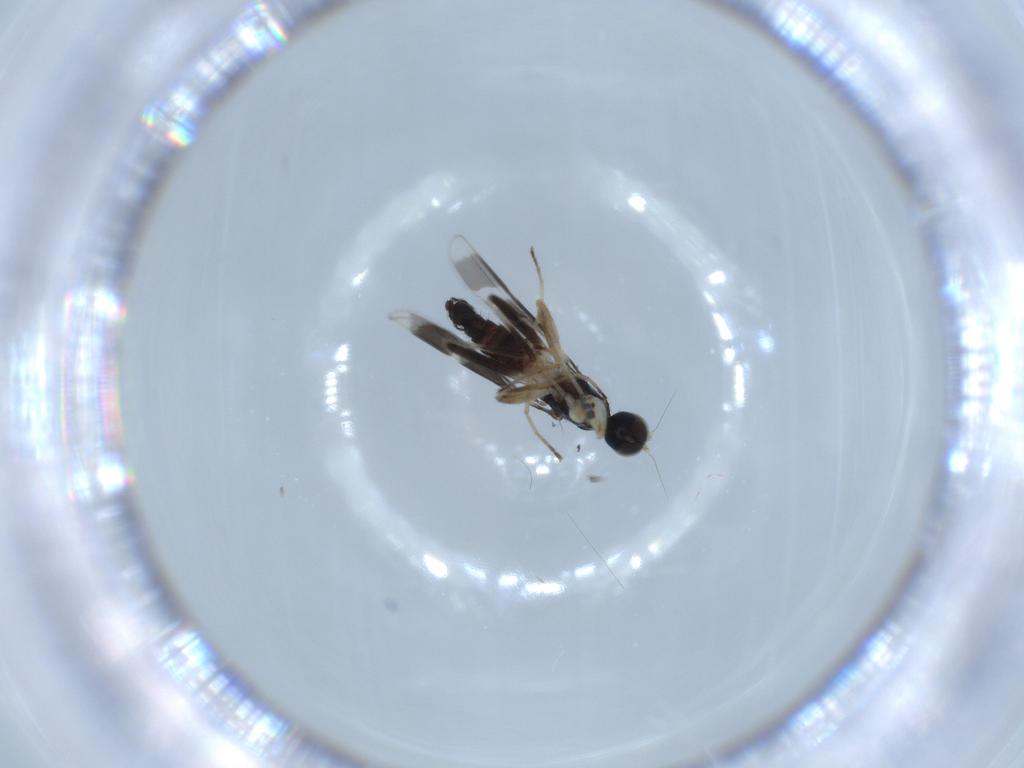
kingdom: Animalia
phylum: Arthropoda
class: Insecta
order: Diptera
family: Hybotidae
